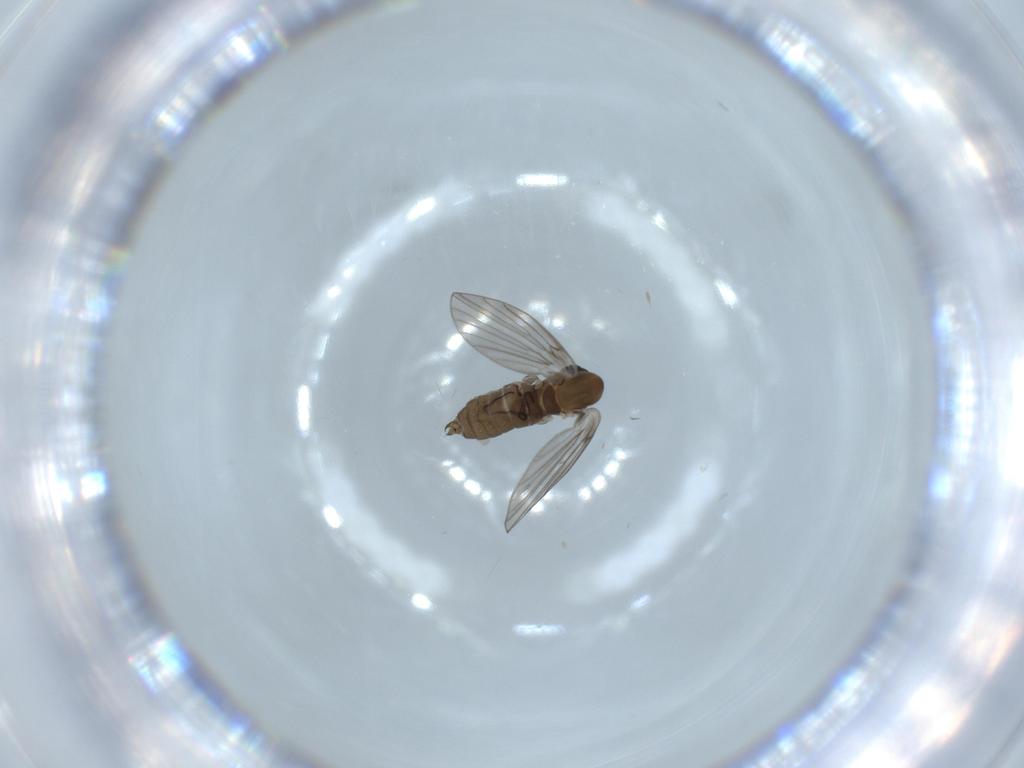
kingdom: Animalia
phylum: Arthropoda
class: Insecta
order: Diptera
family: Psychodidae
